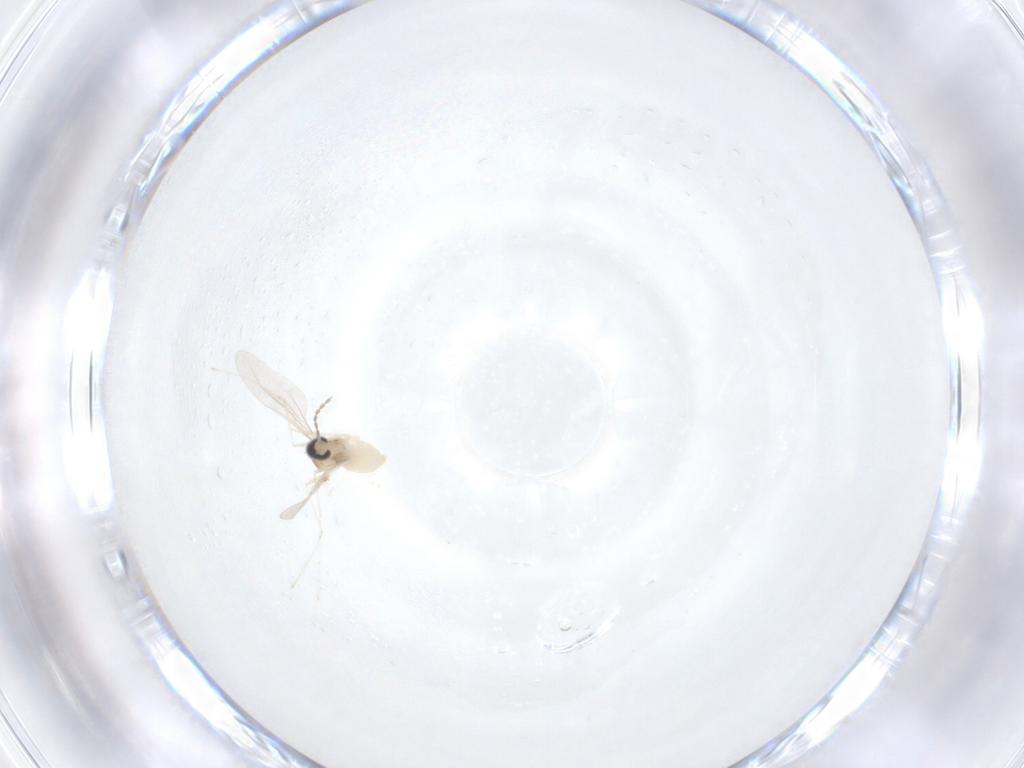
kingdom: Animalia
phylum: Arthropoda
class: Insecta
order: Diptera
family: Cecidomyiidae
